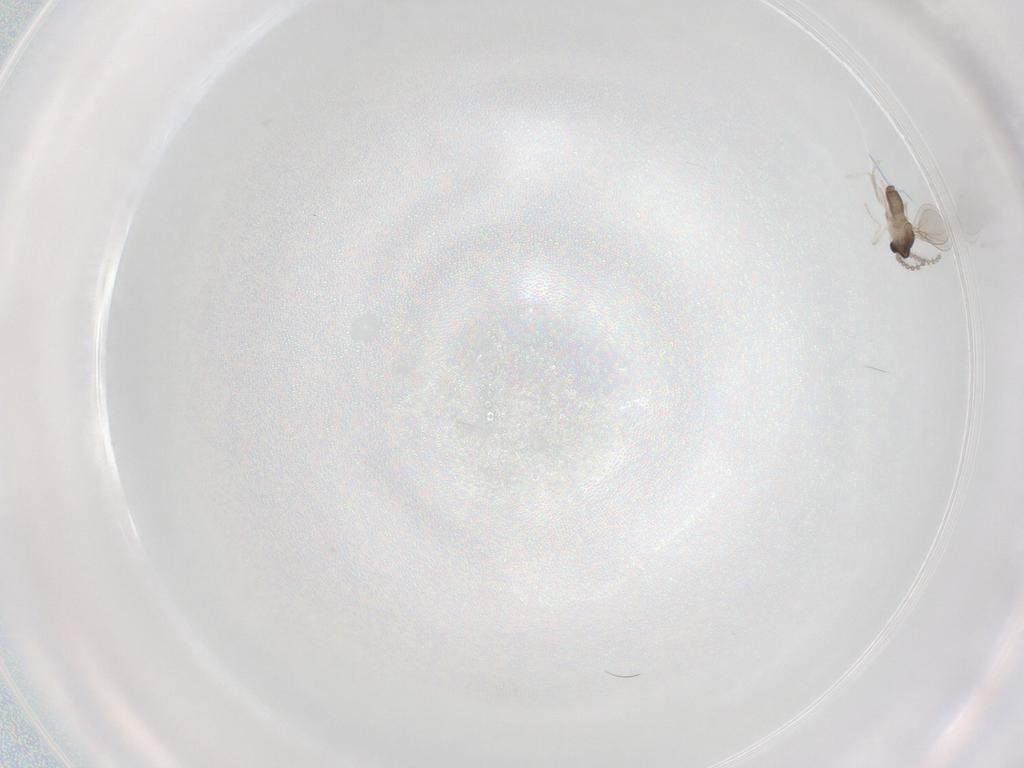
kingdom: Animalia
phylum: Arthropoda
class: Insecta
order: Diptera
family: Cecidomyiidae
